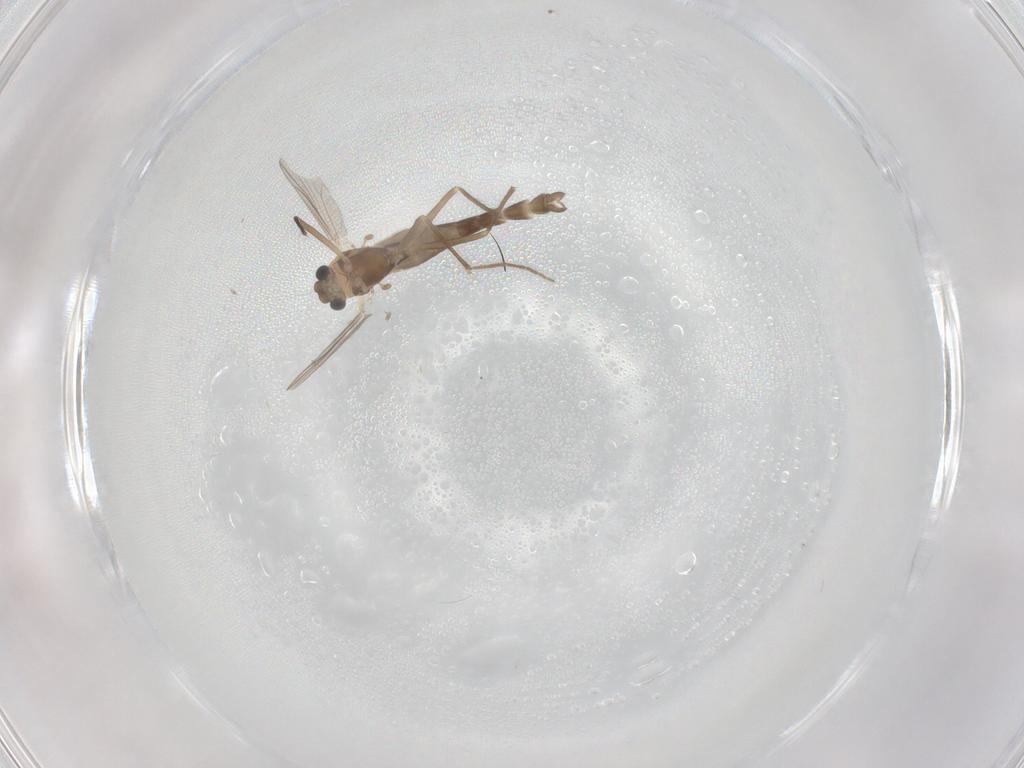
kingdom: Animalia
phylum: Arthropoda
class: Insecta
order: Diptera
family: Chironomidae
